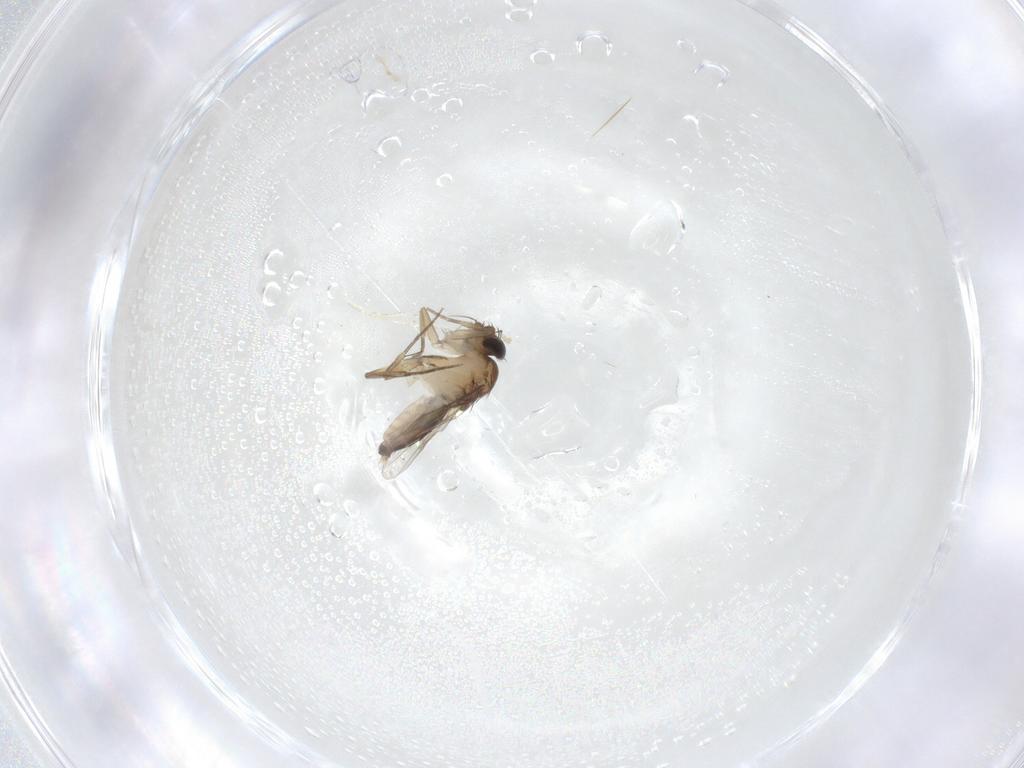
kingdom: Animalia
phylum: Arthropoda
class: Insecta
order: Diptera
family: Phoridae
